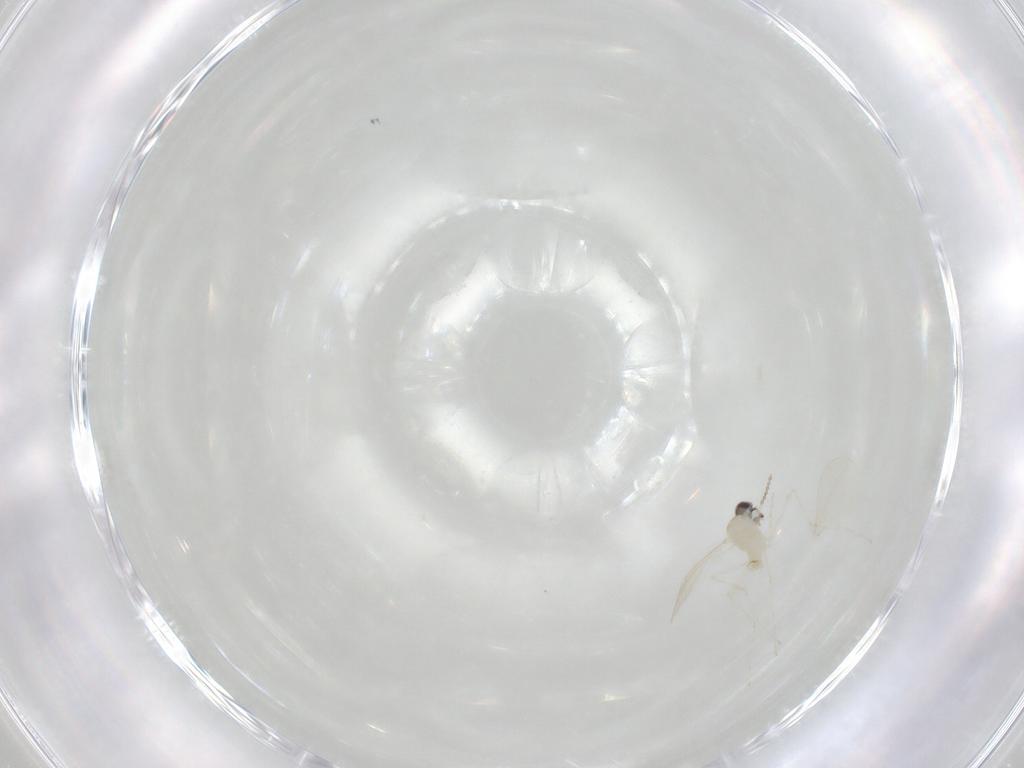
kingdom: Animalia
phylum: Arthropoda
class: Insecta
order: Diptera
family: Cecidomyiidae
